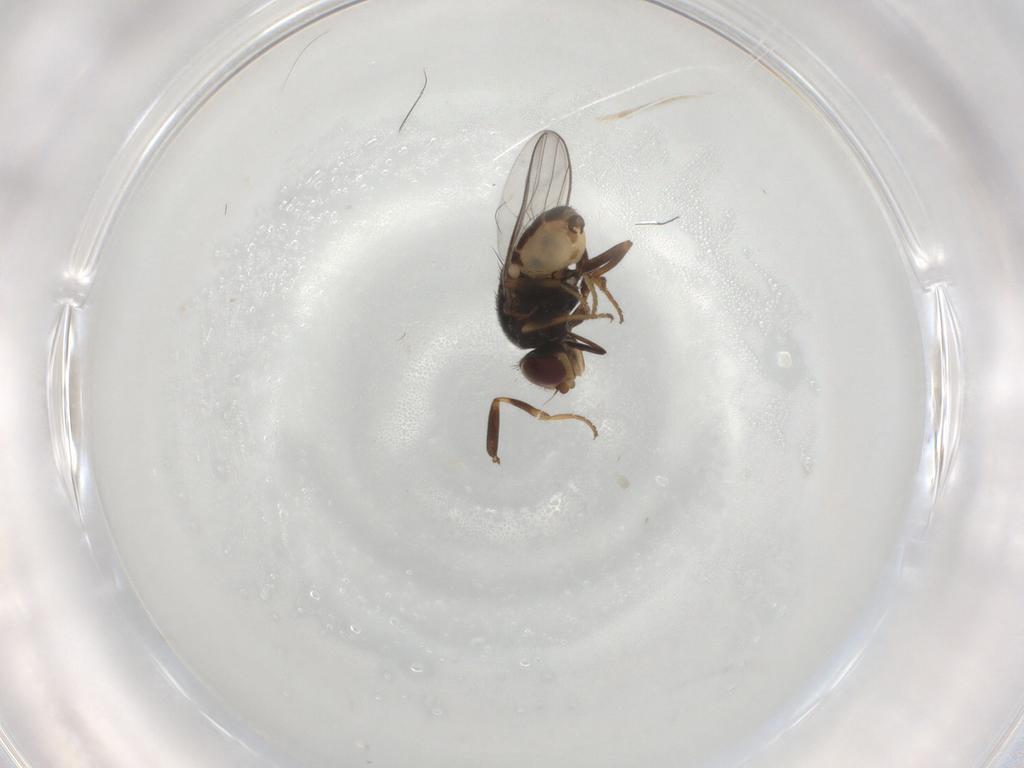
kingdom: Animalia
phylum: Arthropoda
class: Insecta
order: Diptera
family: Chloropidae
